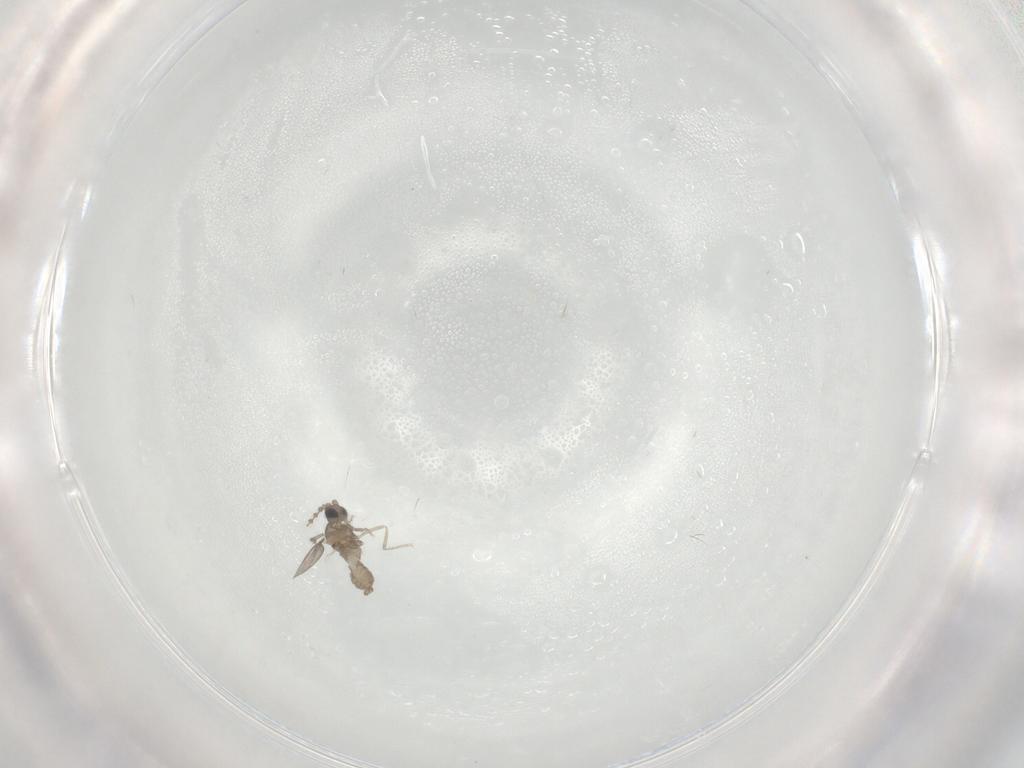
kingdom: Animalia
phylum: Arthropoda
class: Insecta
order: Diptera
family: Cecidomyiidae
